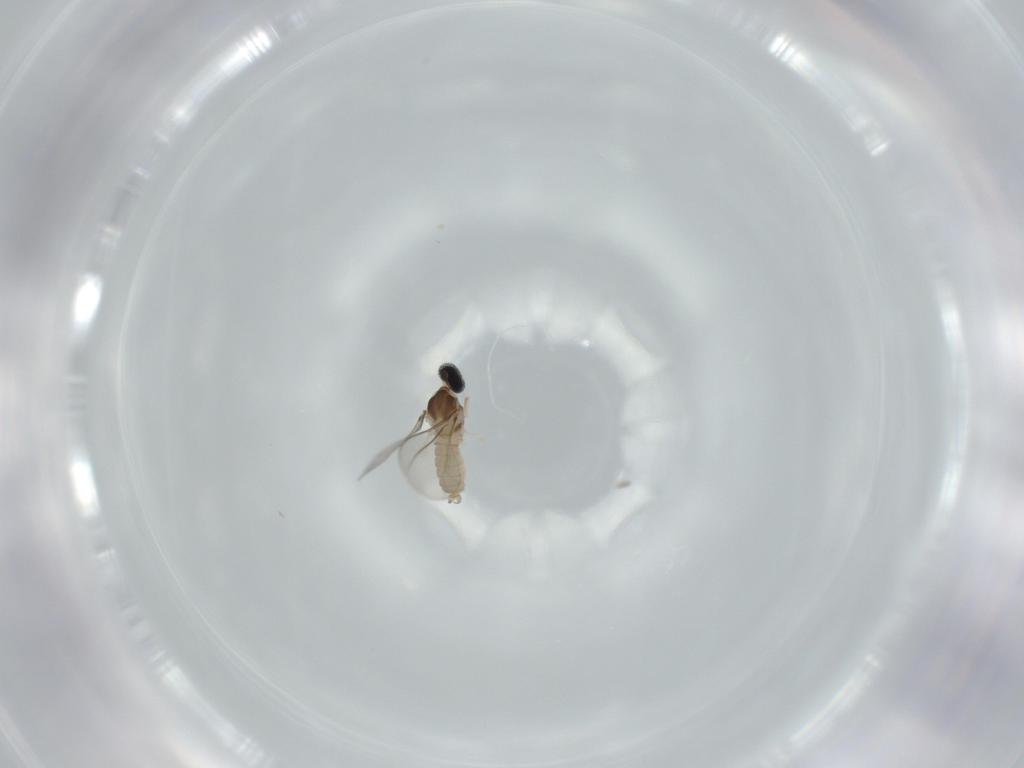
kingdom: Animalia
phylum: Arthropoda
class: Insecta
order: Diptera
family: Cecidomyiidae
